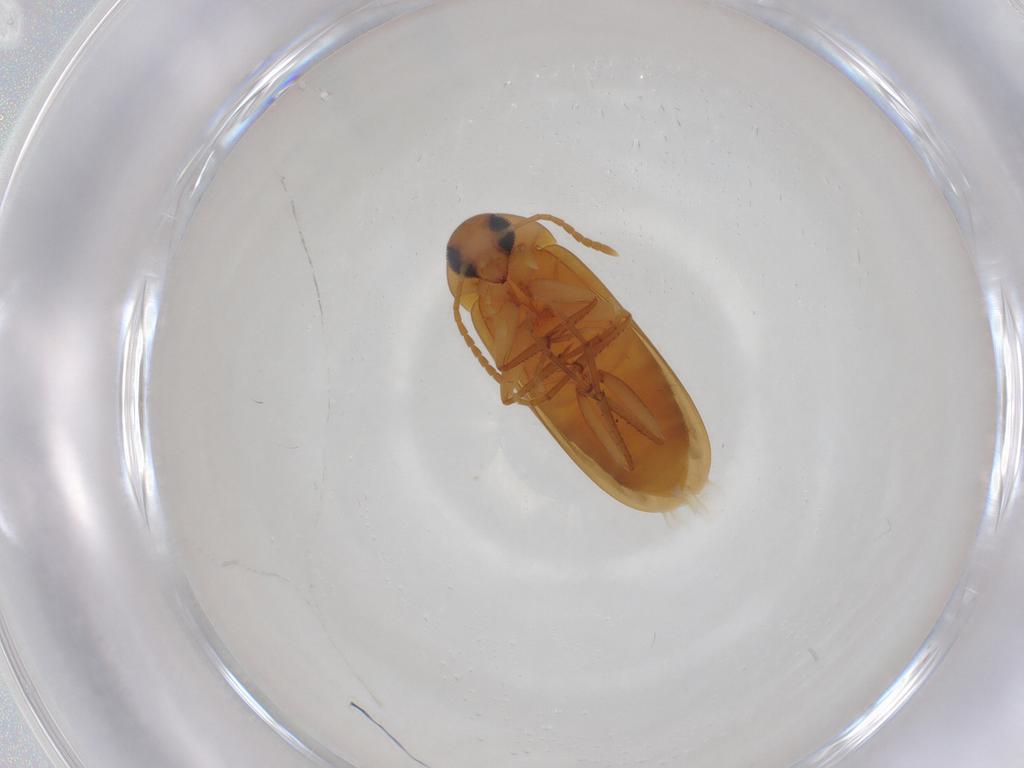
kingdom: Animalia
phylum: Arthropoda
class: Insecta
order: Coleoptera
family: Scraptiidae
